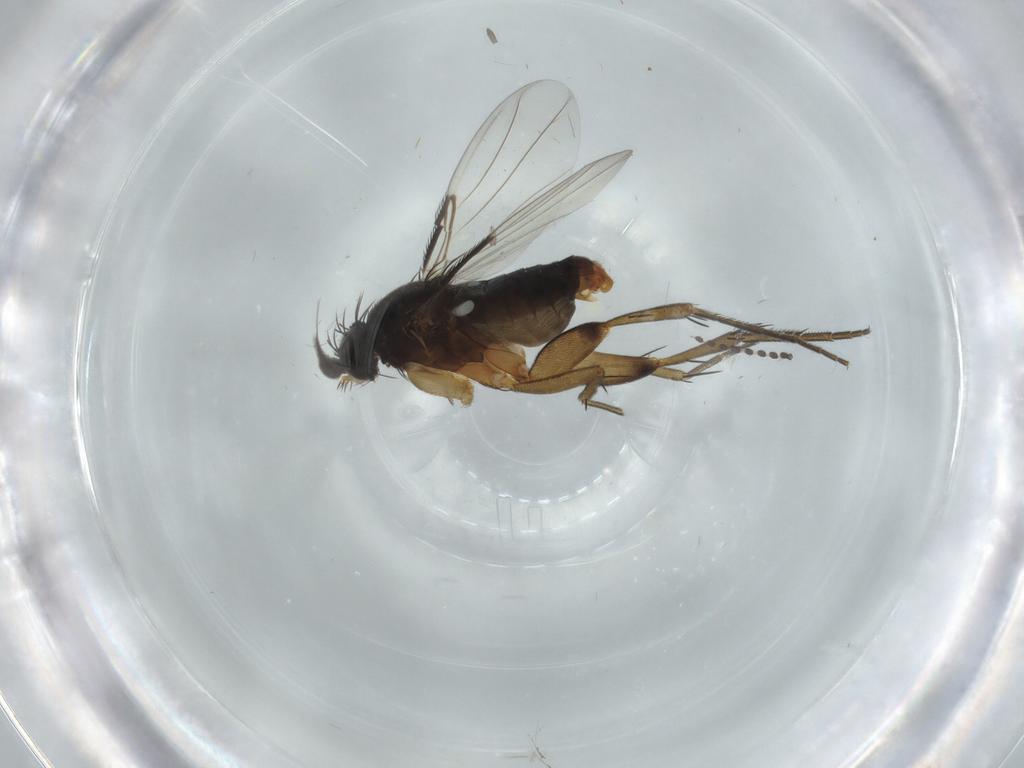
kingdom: Animalia
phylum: Arthropoda
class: Insecta
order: Diptera
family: Phoridae
